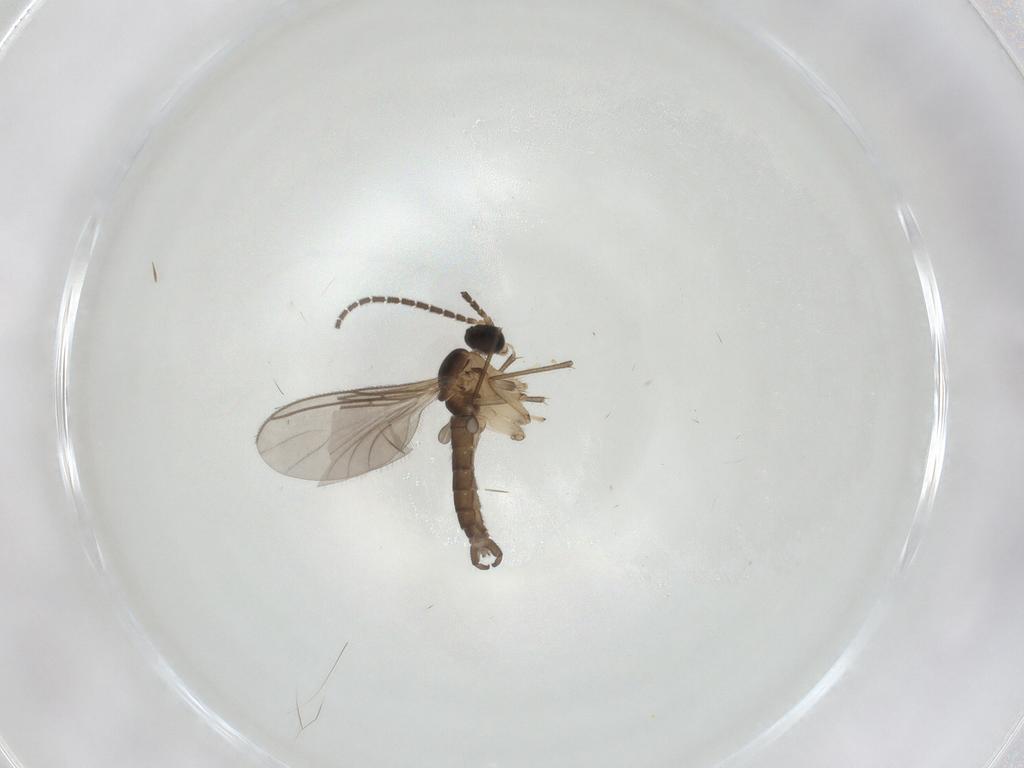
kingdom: Animalia
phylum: Arthropoda
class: Insecta
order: Diptera
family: Sciaridae
